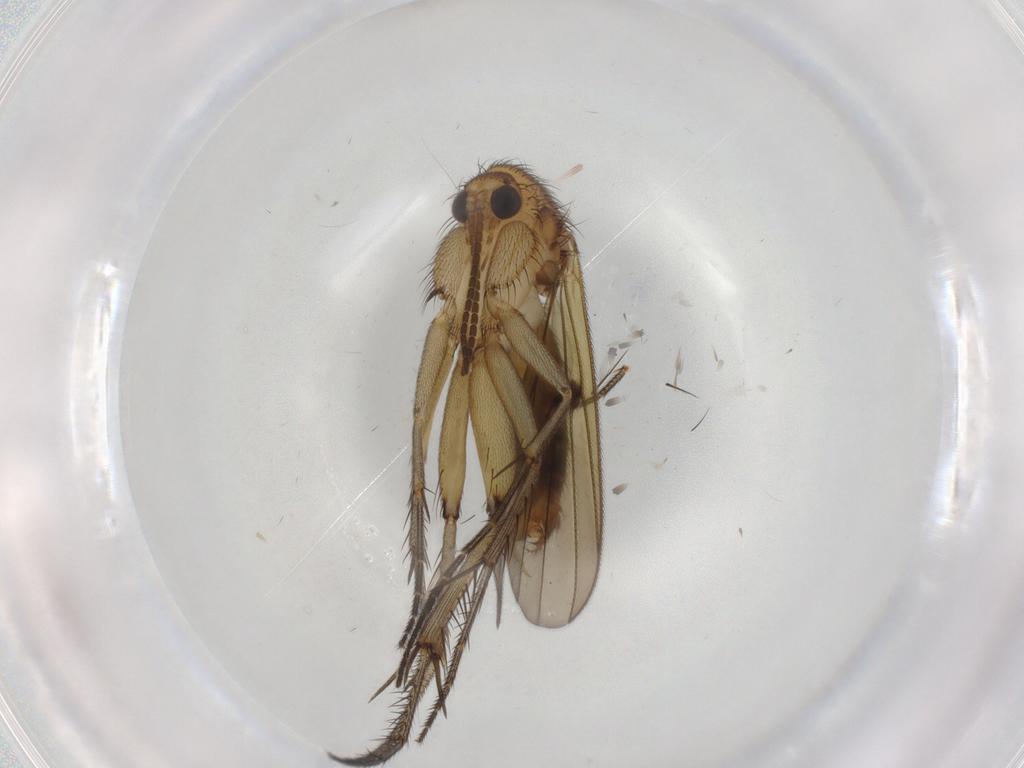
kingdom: Animalia
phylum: Arthropoda
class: Insecta
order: Diptera
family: Mycetophilidae
